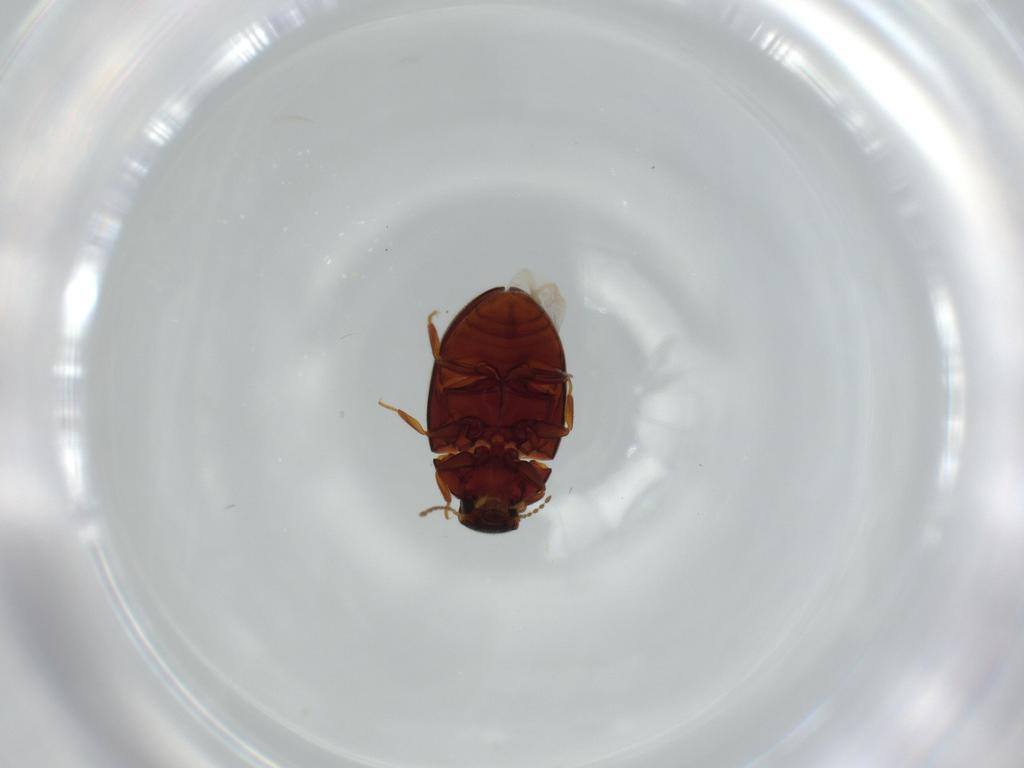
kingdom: Animalia
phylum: Arthropoda
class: Insecta
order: Coleoptera
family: Limnichidae
